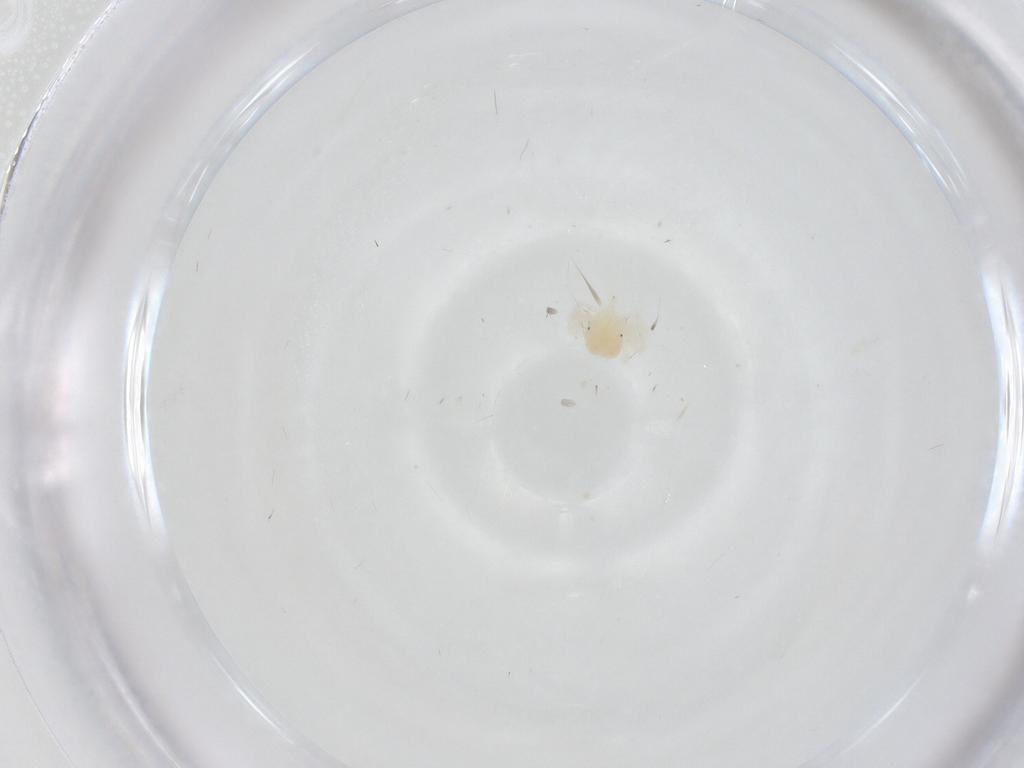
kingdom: Animalia
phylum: Arthropoda
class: Arachnida
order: Trombidiformes
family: Anystidae
